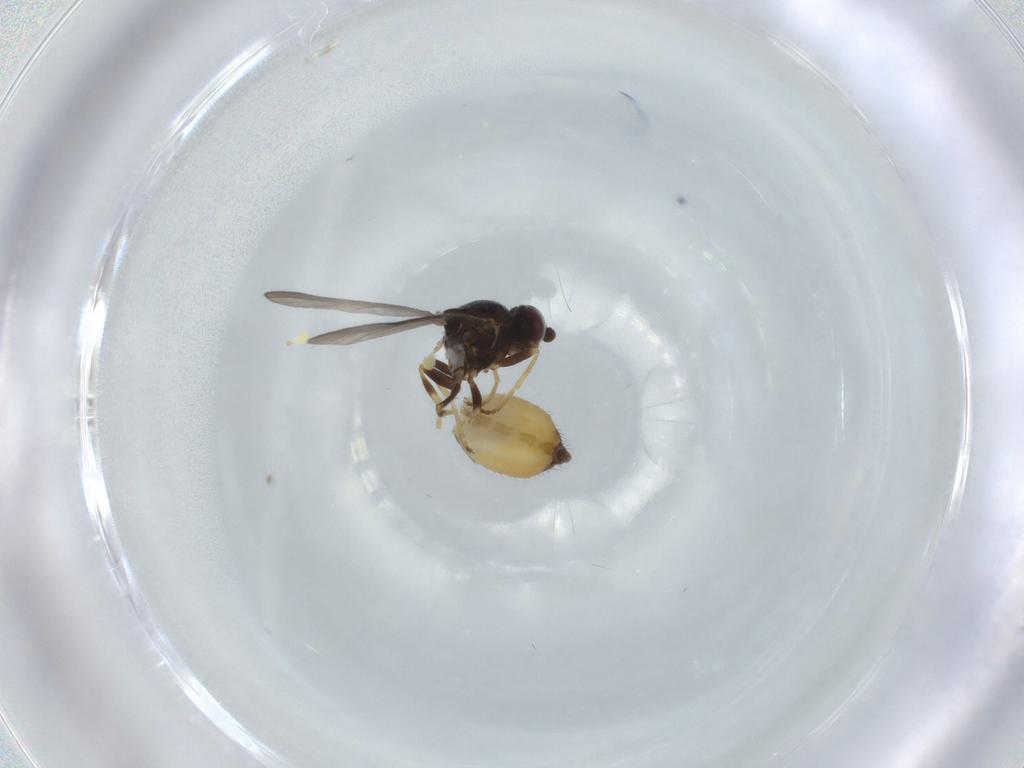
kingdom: Animalia
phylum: Arthropoda
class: Insecta
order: Diptera
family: Chloropidae
